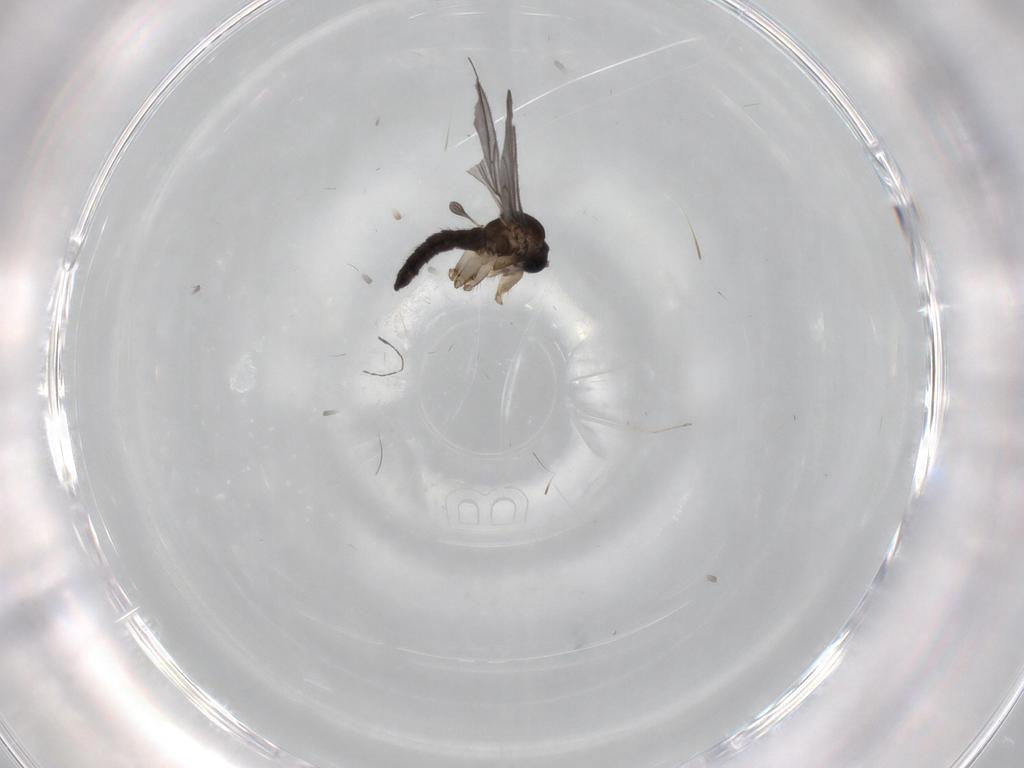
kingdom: Animalia
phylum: Arthropoda
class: Insecta
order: Diptera
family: Sciaridae
